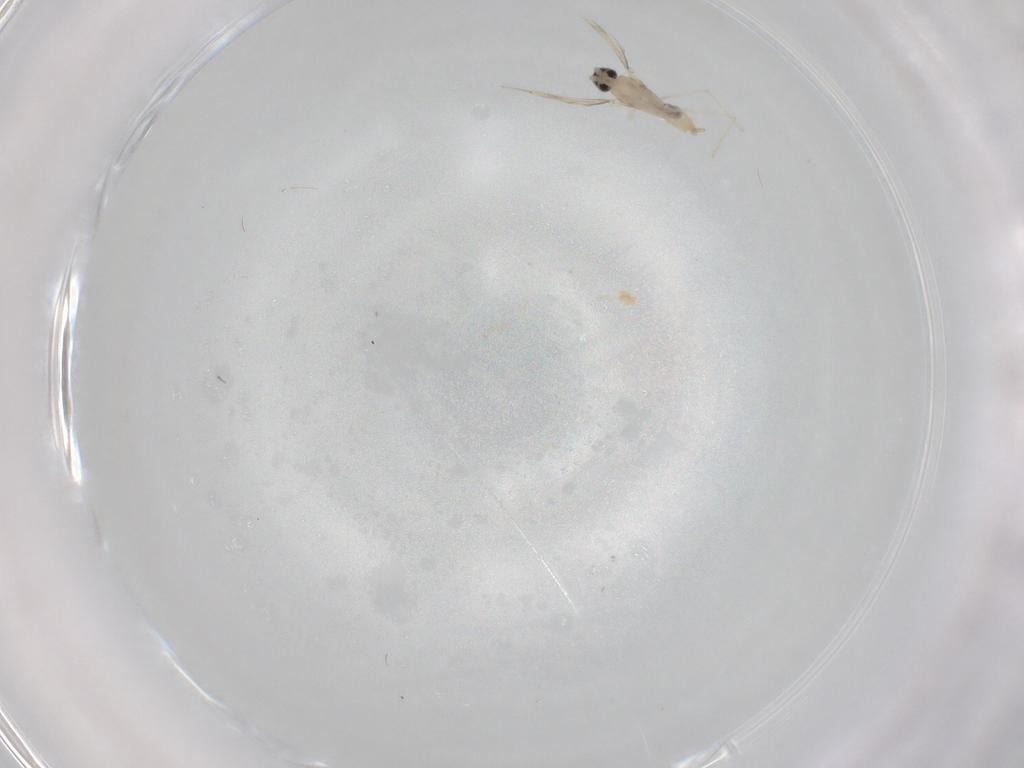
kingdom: Animalia
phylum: Arthropoda
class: Insecta
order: Diptera
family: Cecidomyiidae
